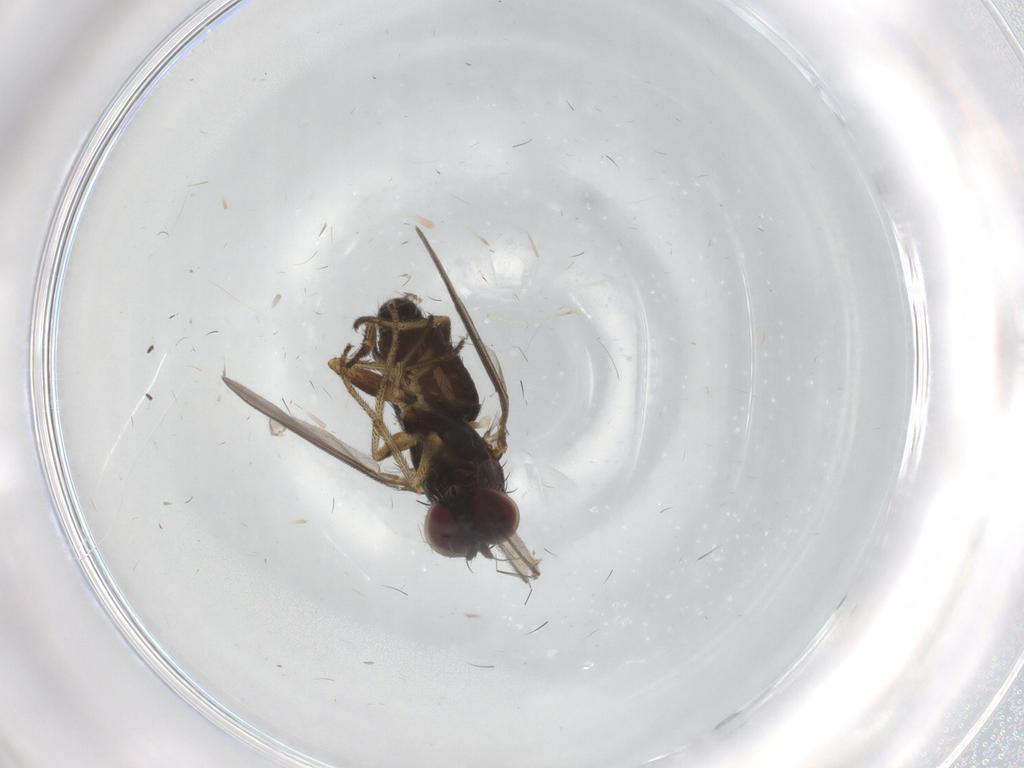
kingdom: Animalia
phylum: Arthropoda
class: Insecta
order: Diptera
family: Dolichopodidae
